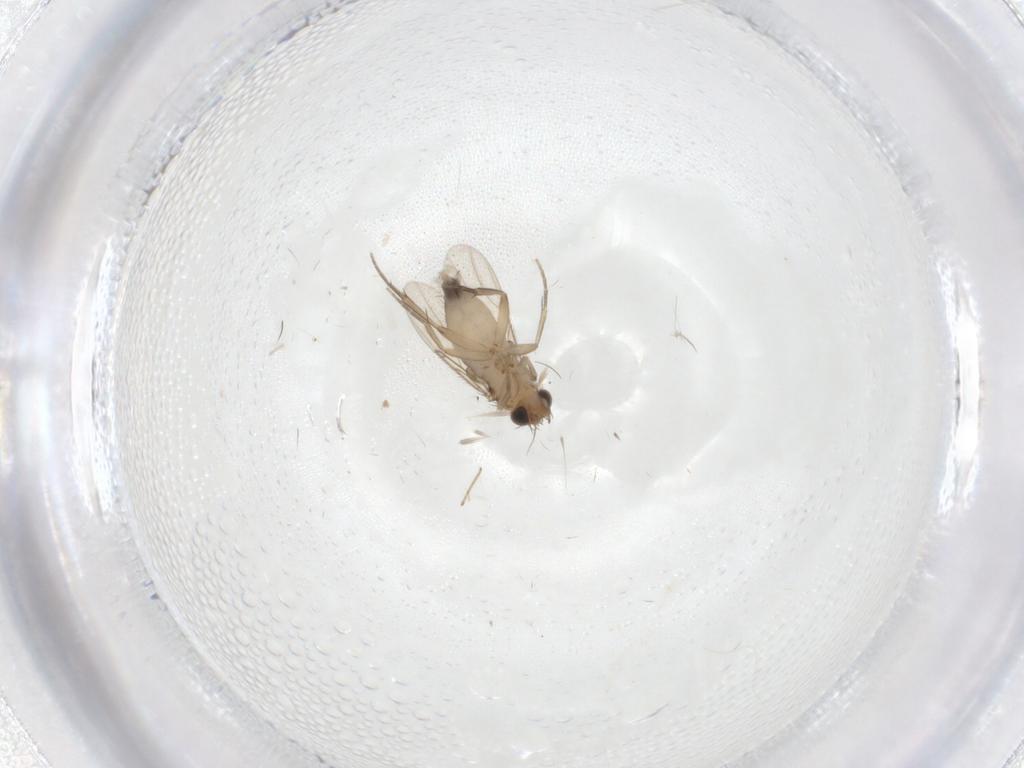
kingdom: Animalia
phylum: Arthropoda
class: Insecta
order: Diptera
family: Phoridae
